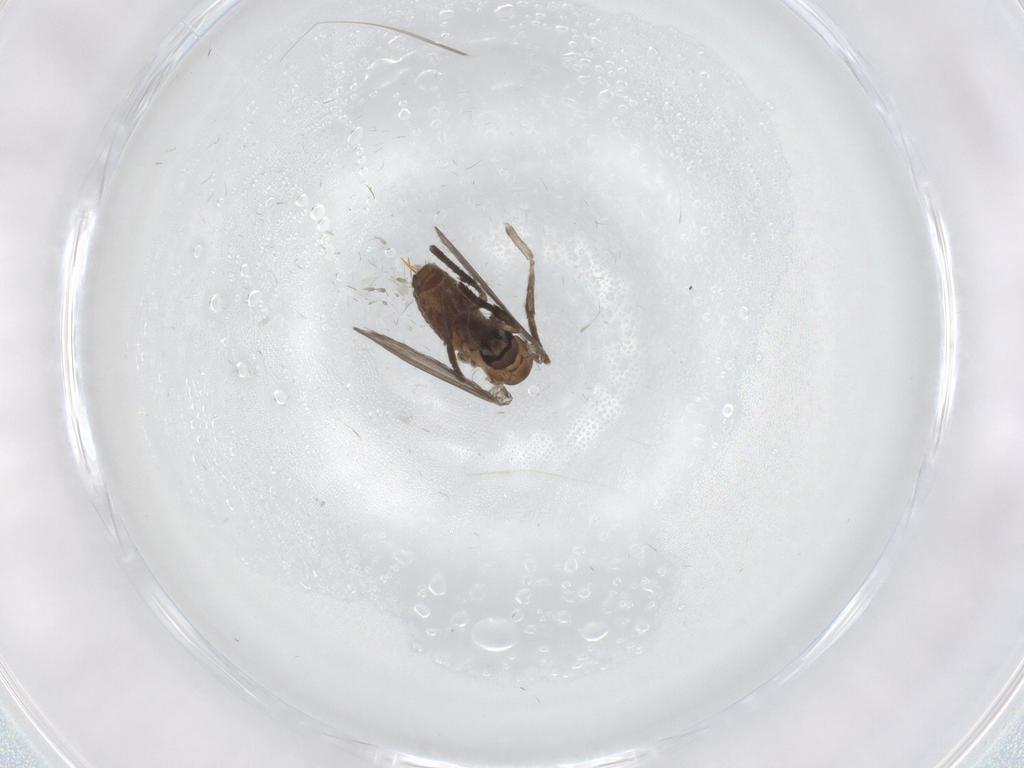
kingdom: Animalia
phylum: Arthropoda
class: Insecta
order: Diptera
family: Psychodidae
